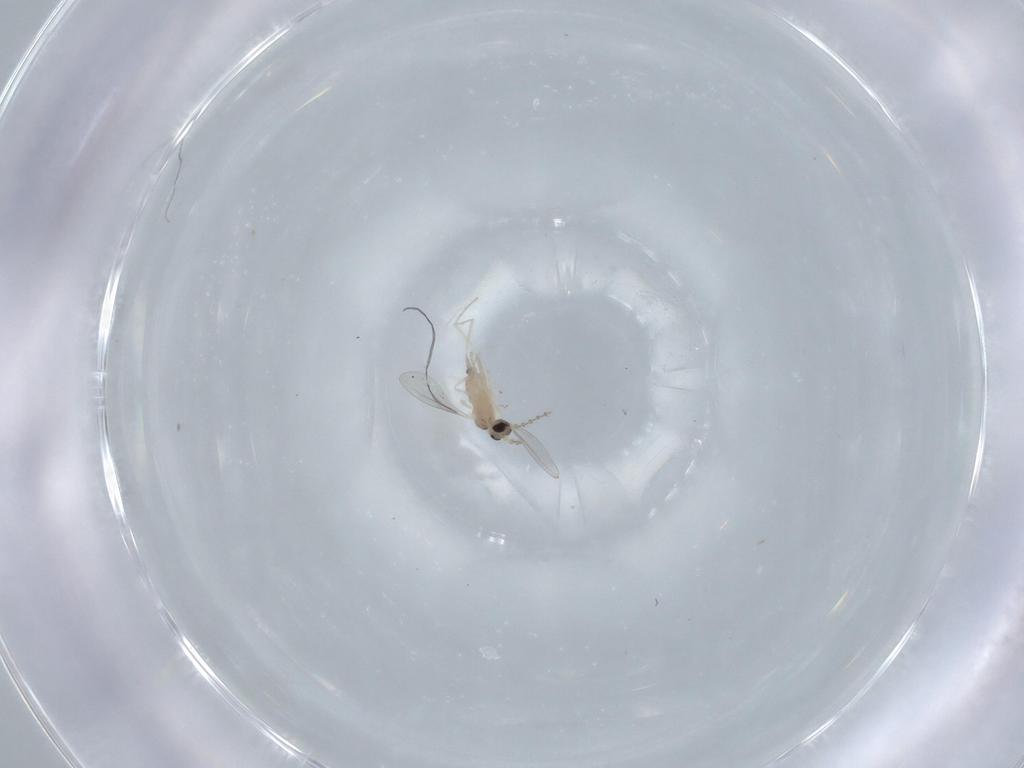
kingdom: Animalia
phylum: Arthropoda
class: Insecta
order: Diptera
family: Cecidomyiidae
